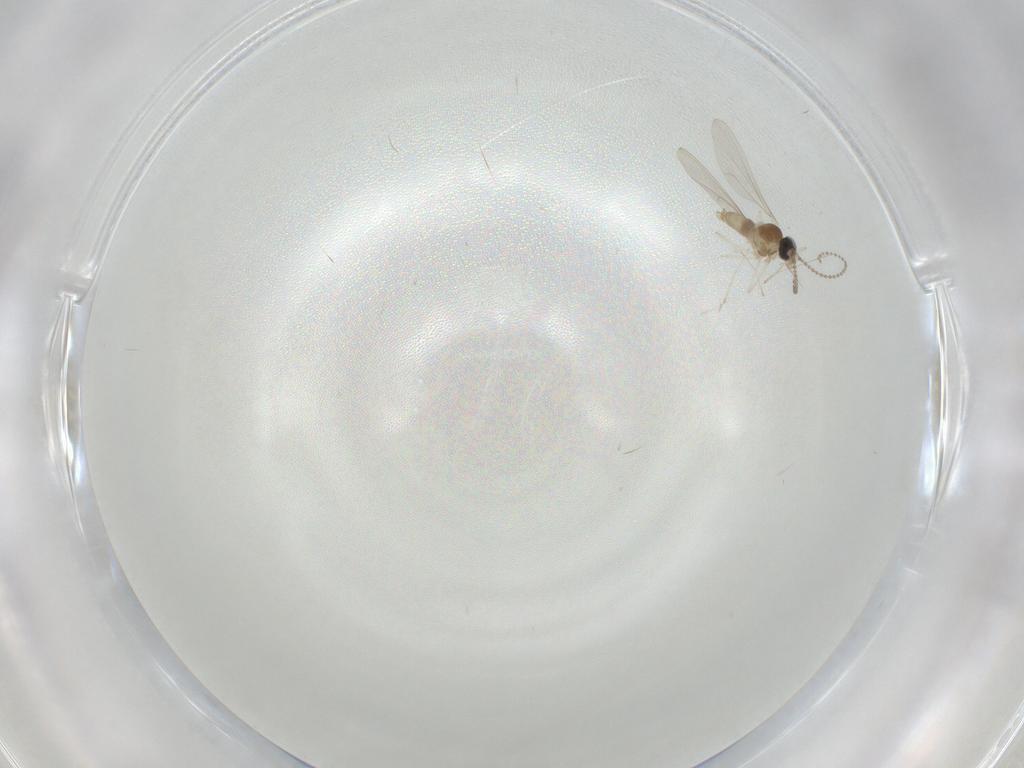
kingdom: Animalia
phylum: Arthropoda
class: Insecta
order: Diptera
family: Cecidomyiidae
